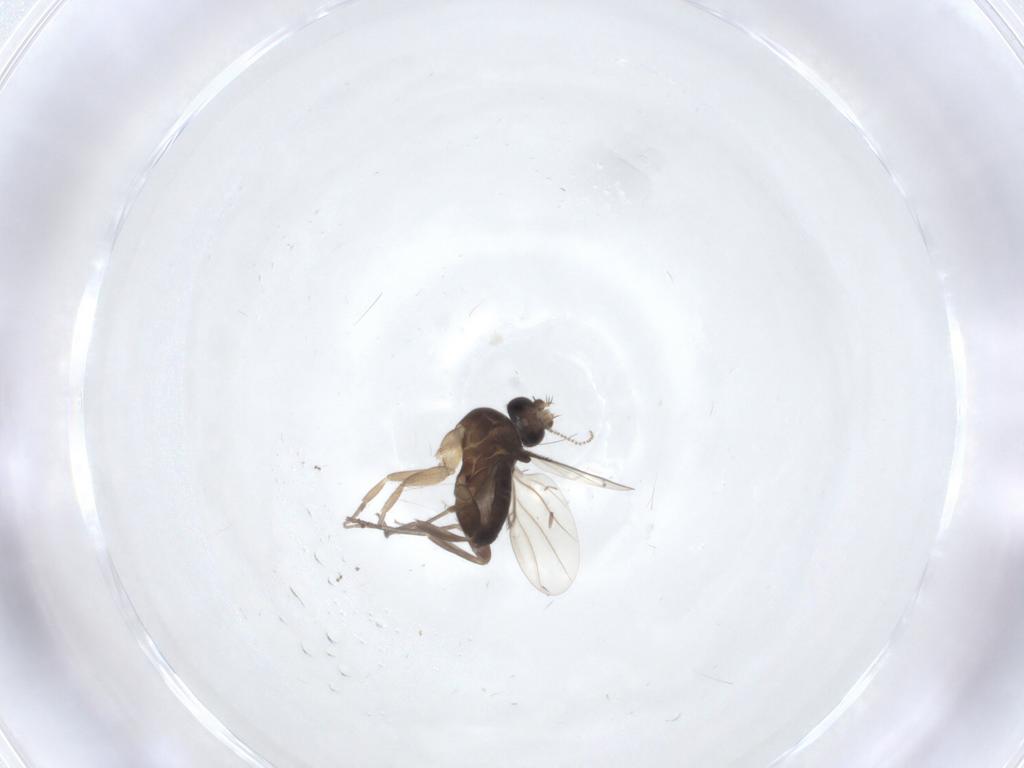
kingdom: Animalia
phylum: Arthropoda
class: Insecta
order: Diptera
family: Phoridae
